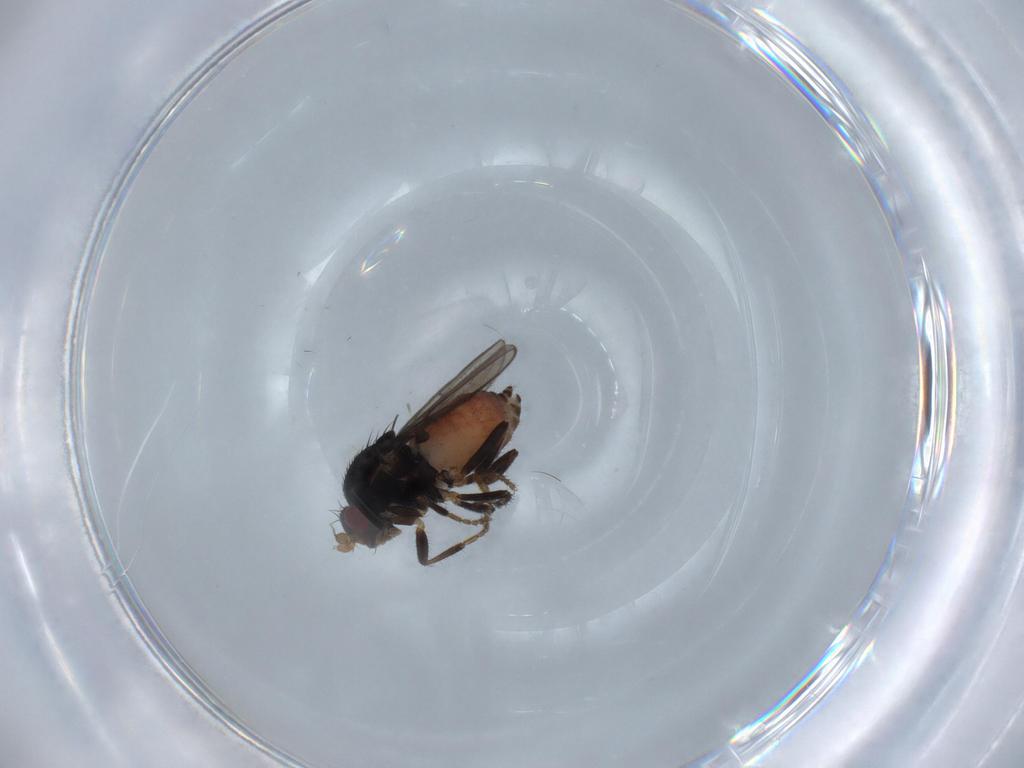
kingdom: Animalia
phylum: Arthropoda
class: Insecta
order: Diptera
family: Sphaeroceridae
